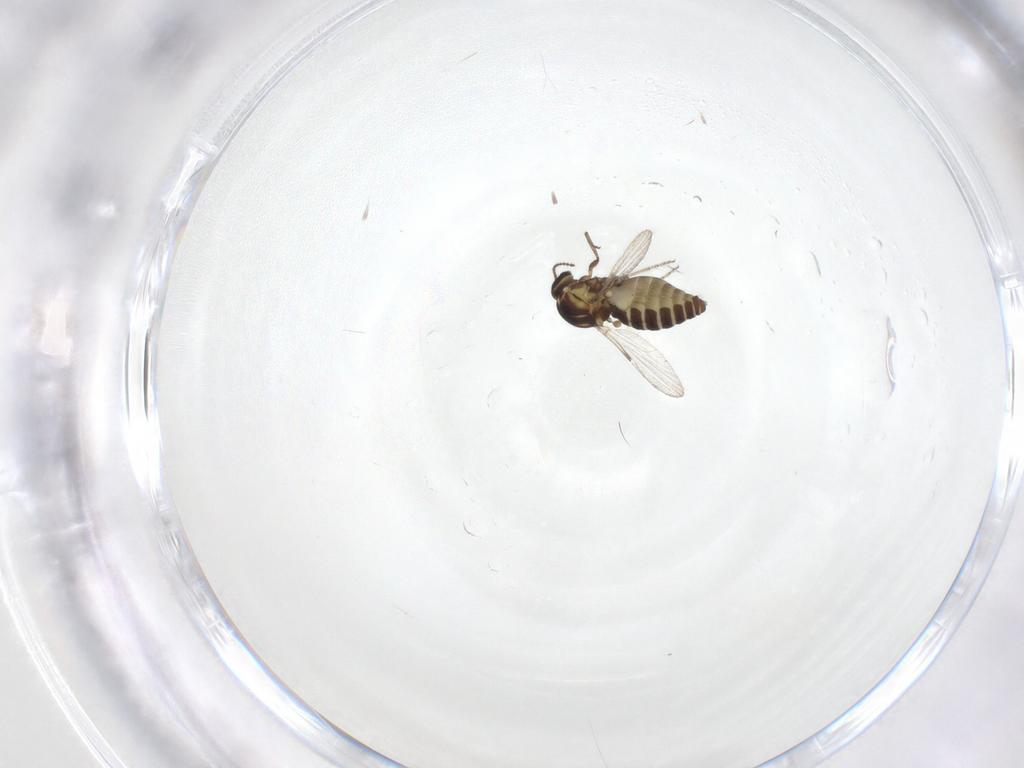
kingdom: Animalia
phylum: Arthropoda
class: Insecta
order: Diptera
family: Ceratopogonidae
